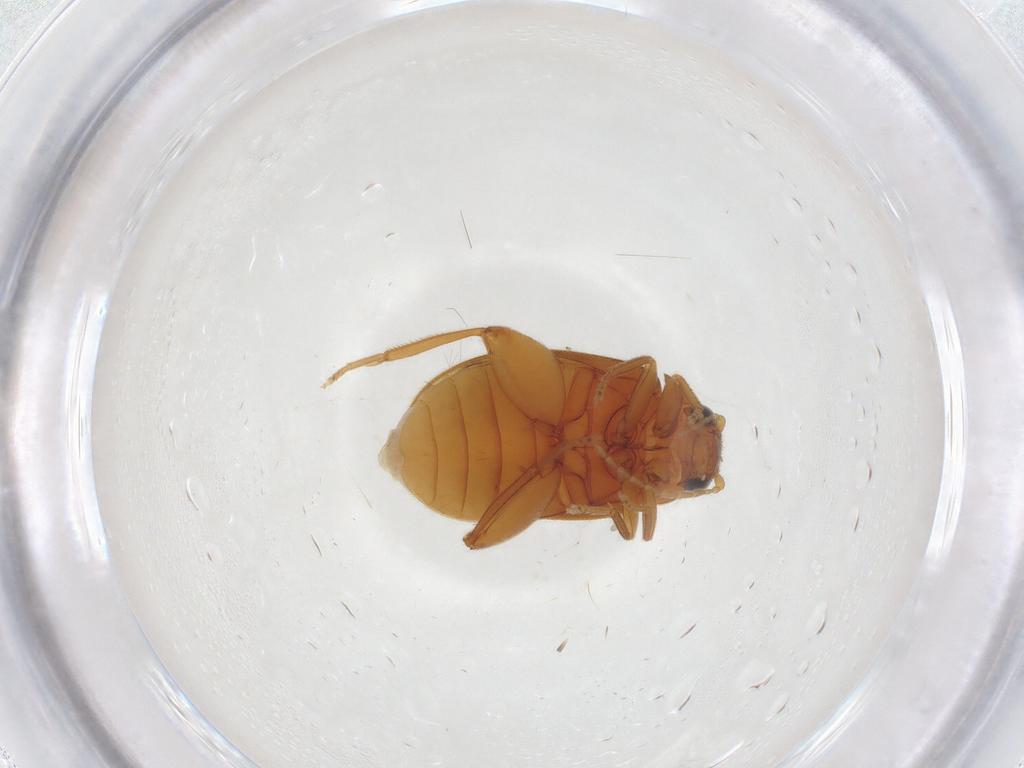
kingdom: Animalia
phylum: Arthropoda
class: Insecta
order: Coleoptera
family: Scirtidae
